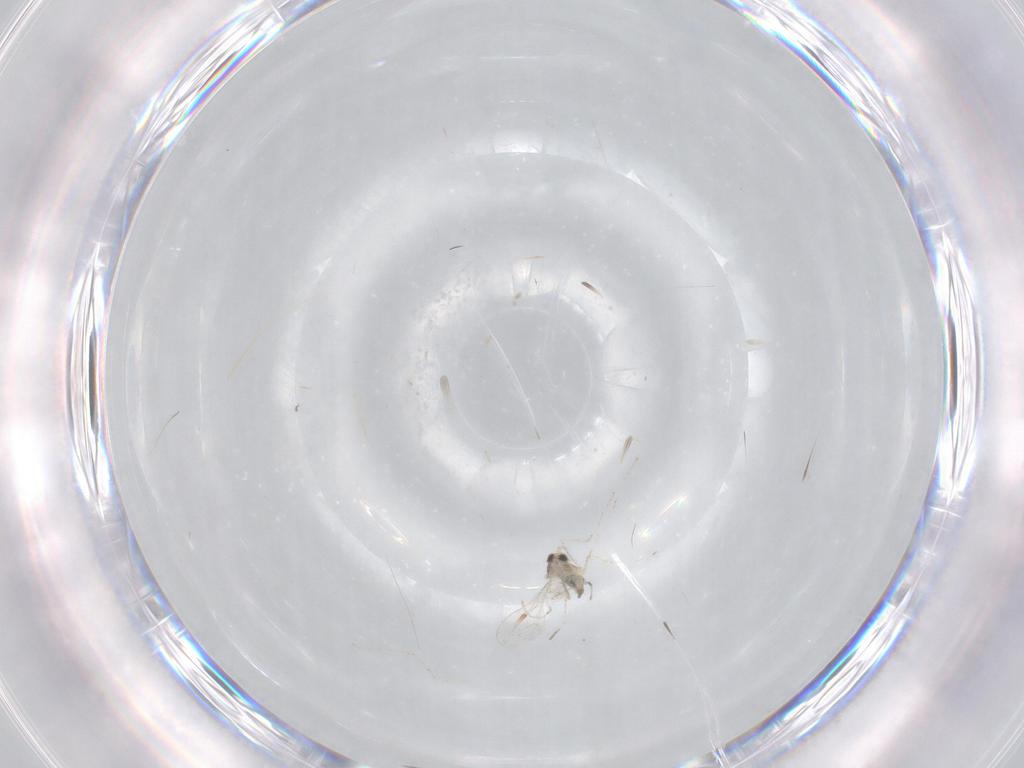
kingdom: Animalia
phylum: Arthropoda
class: Insecta
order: Diptera
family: Cecidomyiidae
